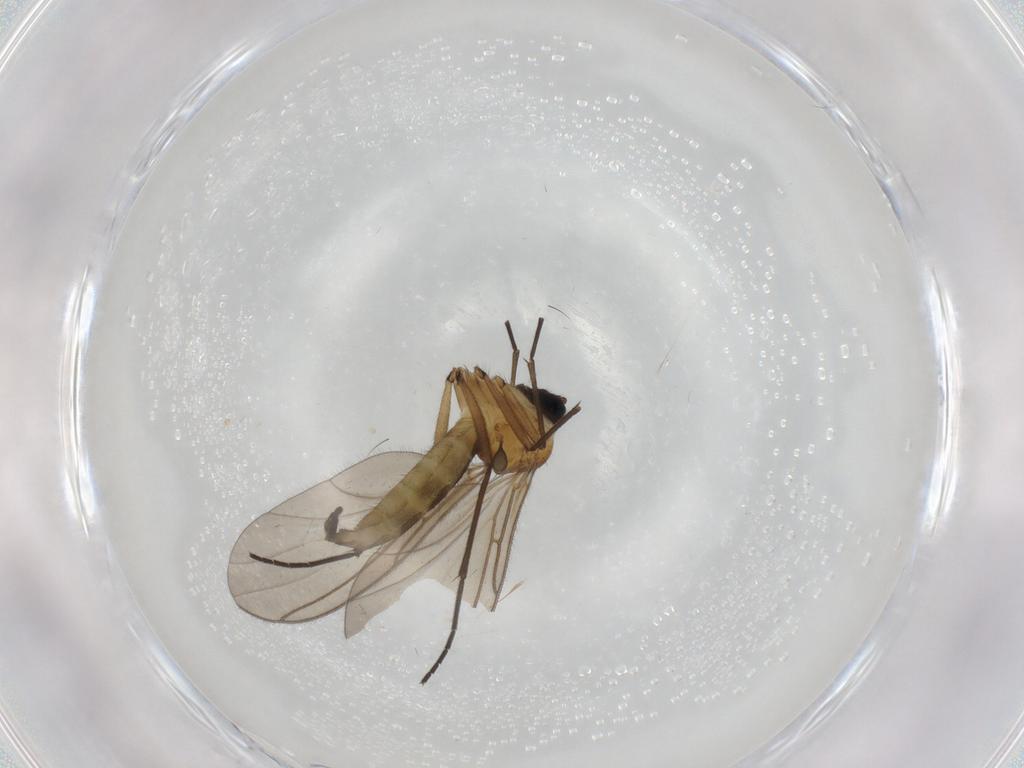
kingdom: Animalia
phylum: Arthropoda
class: Insecta
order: Diptera
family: Sciaridae
